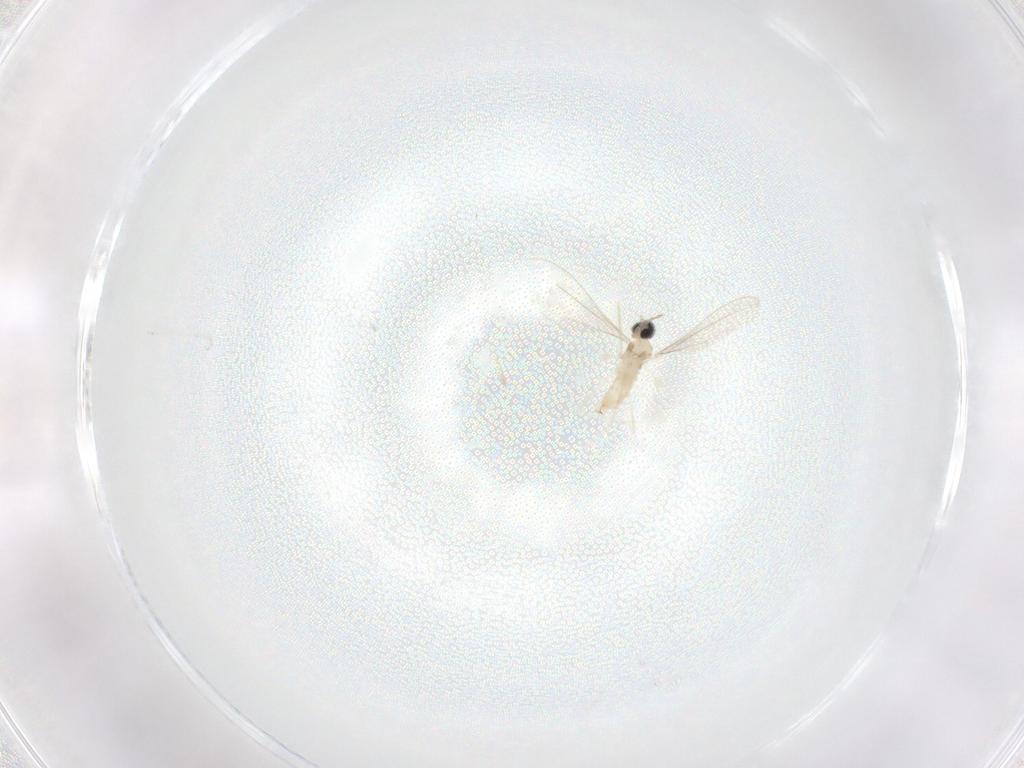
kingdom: Animalia
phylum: Arthropoda
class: Insecta
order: Diptera
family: Cecidomyiidae
